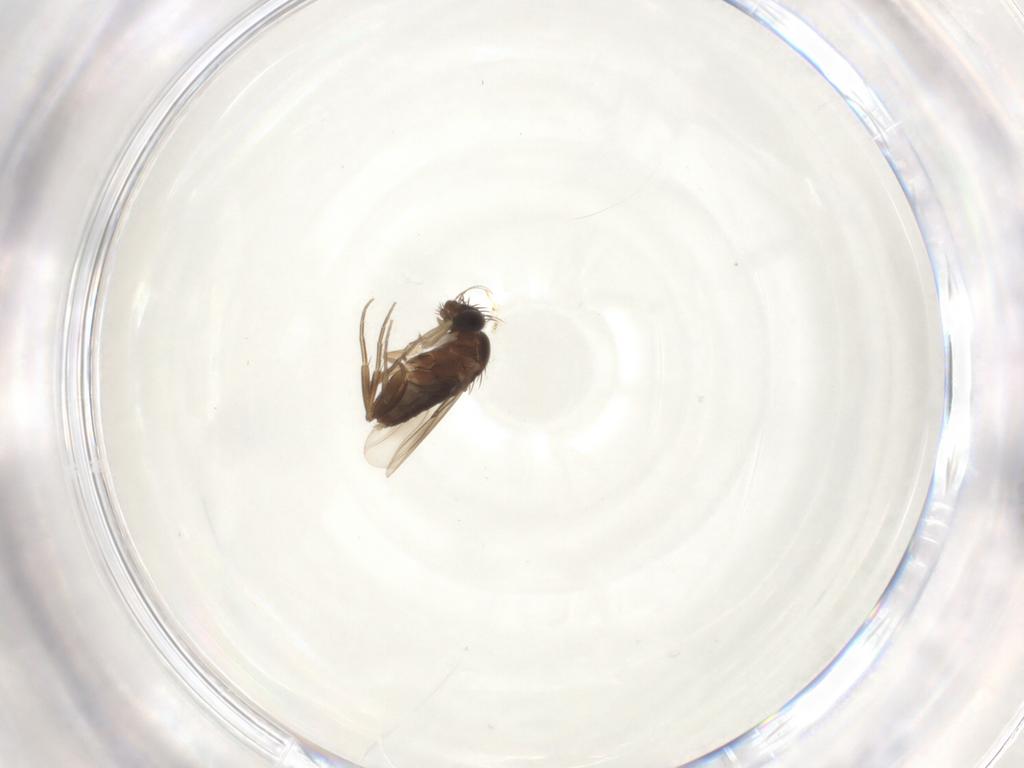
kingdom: Animalia
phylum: Arthropoda
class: Insecta
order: Diptera
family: Phoridae
